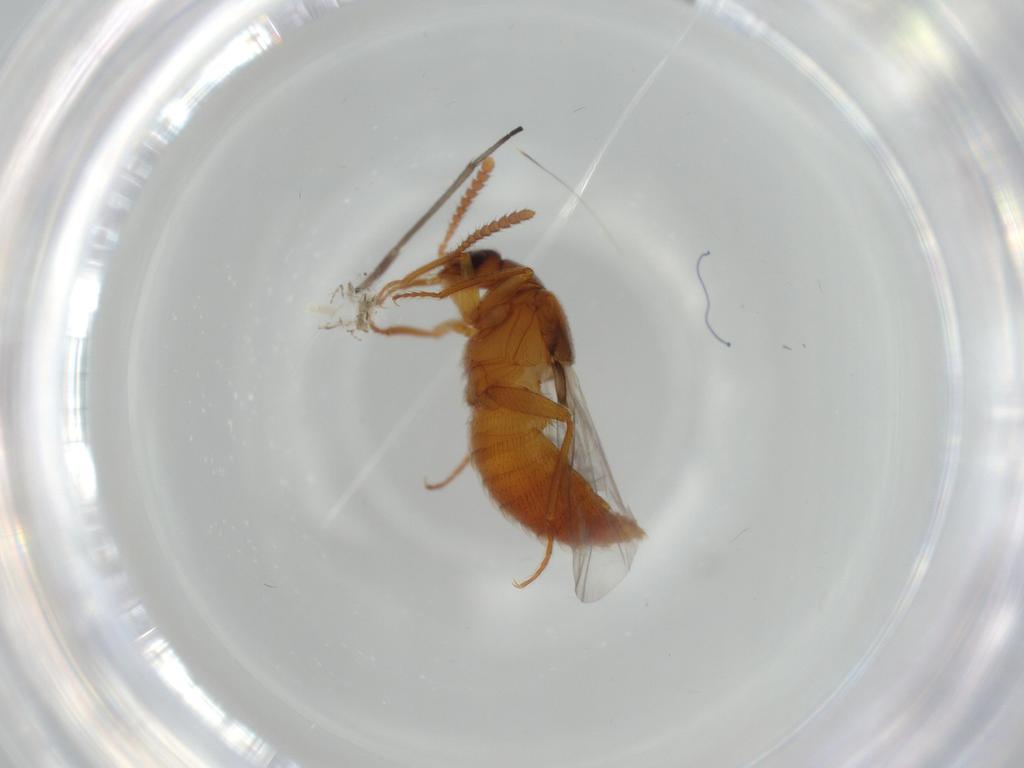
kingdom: Animalia
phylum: Arthropoda
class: Insecta
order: Coleoptera
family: Staphylinidae
